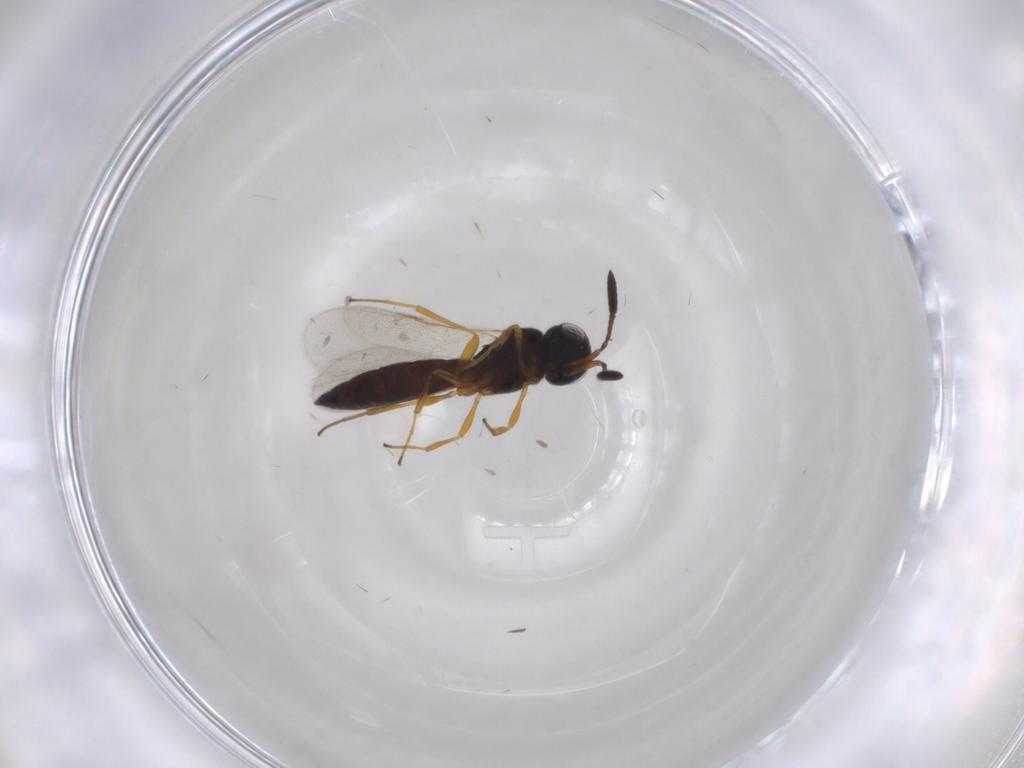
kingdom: Animalia
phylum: Arthropoda
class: Insecta
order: Hymenoptera
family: Scelionidae
